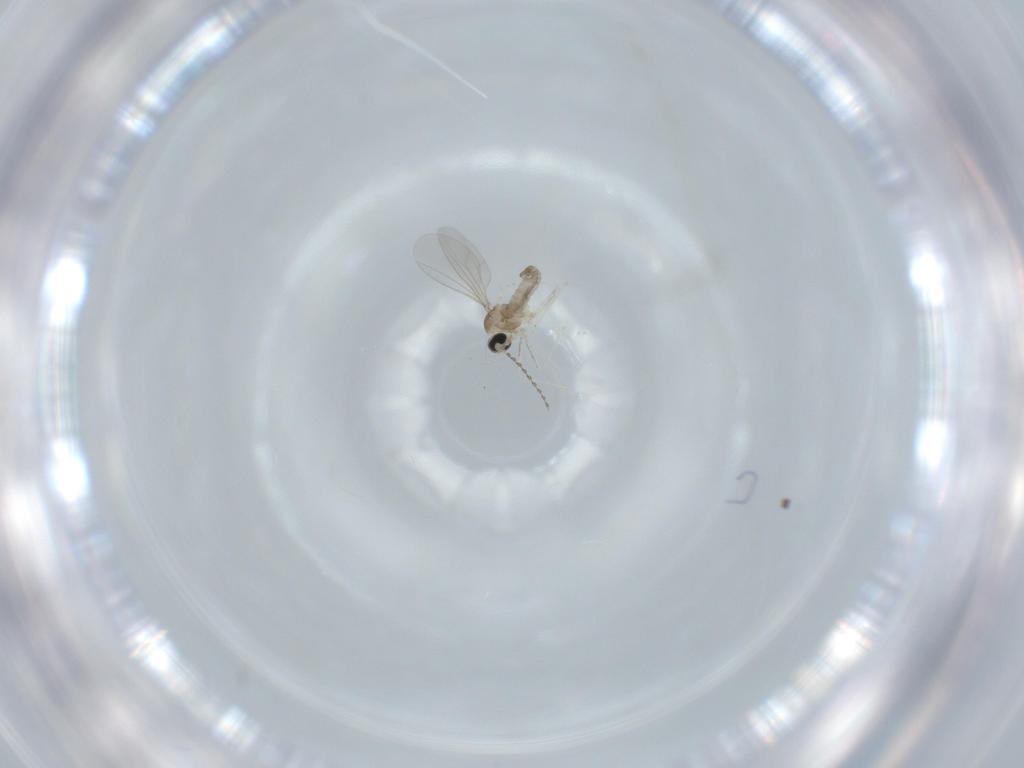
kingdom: Animalia
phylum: Arthropoda
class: Insecta
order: Diptera
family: Cecidomyiidae
